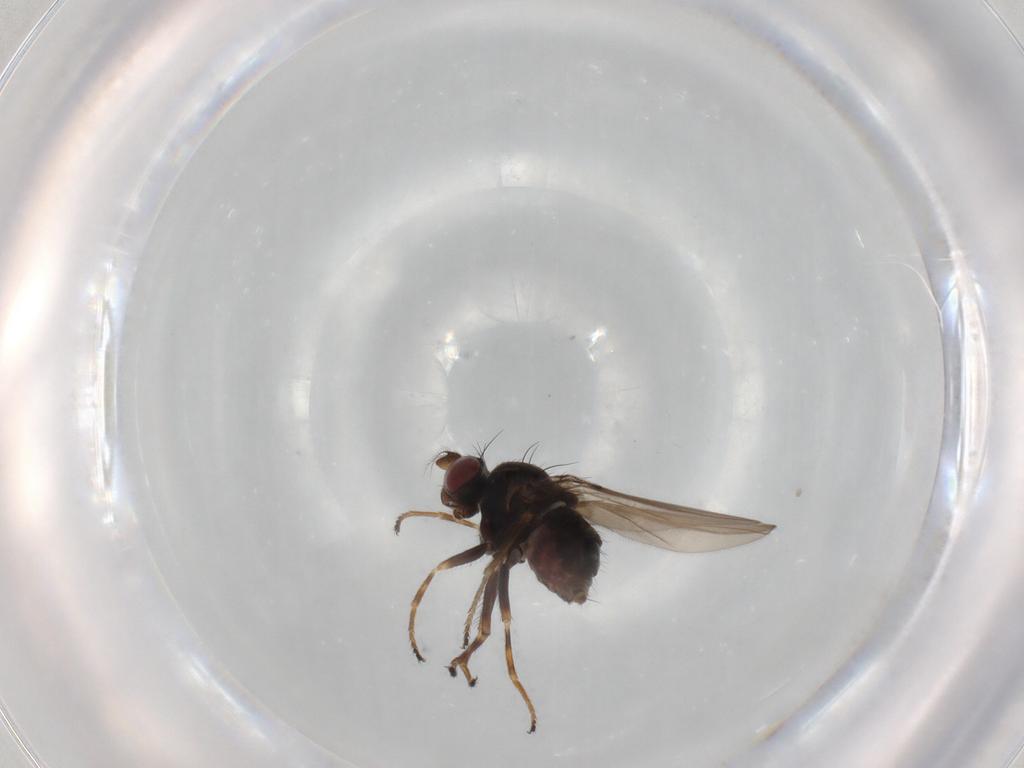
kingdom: Animalia
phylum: Arthropoda
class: Insecta
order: Diptera
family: Ephydridae
